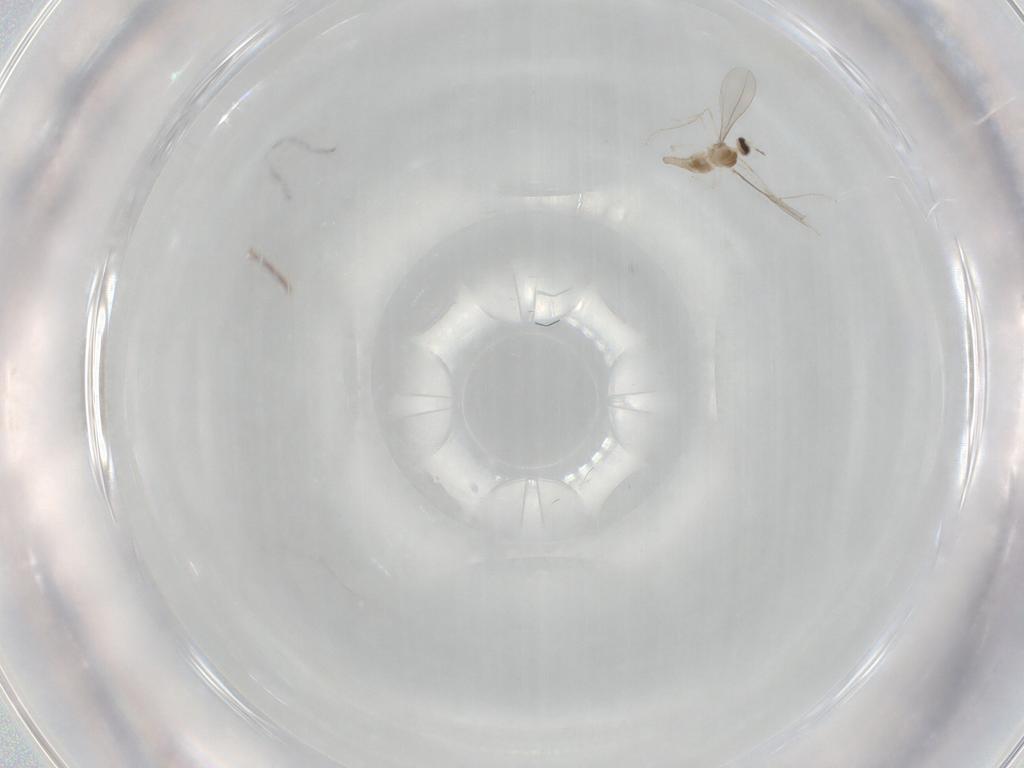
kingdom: Animalia
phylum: Arthropoda
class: Insecta
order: Diptera
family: Cecidomyiidae
